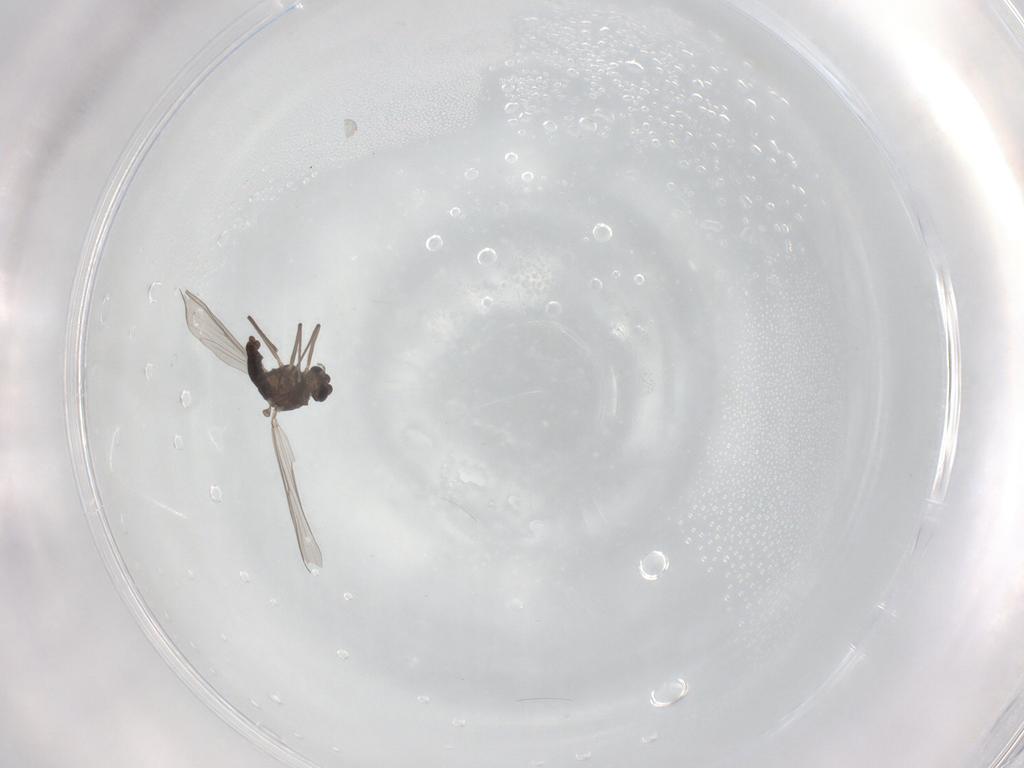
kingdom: Animalia
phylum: Arthropoda
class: Insecta
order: Diptera
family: Chironomidae
